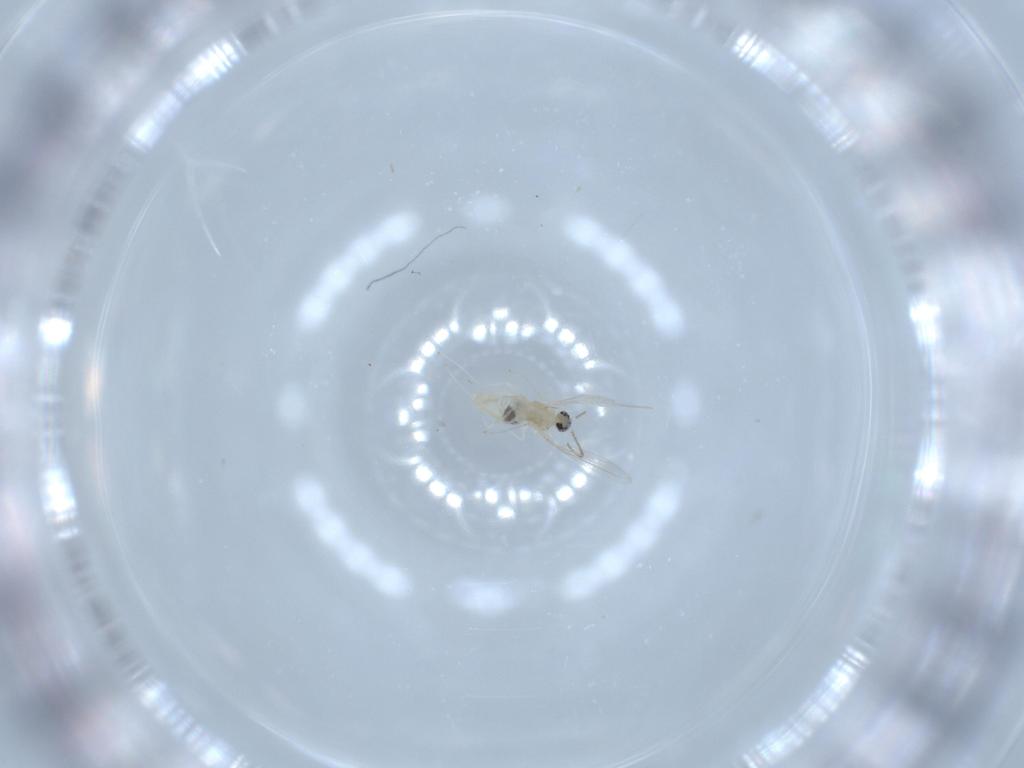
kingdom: Animalia
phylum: Arthropoda
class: Insecta
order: Diptera
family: Cecidomyiidae
